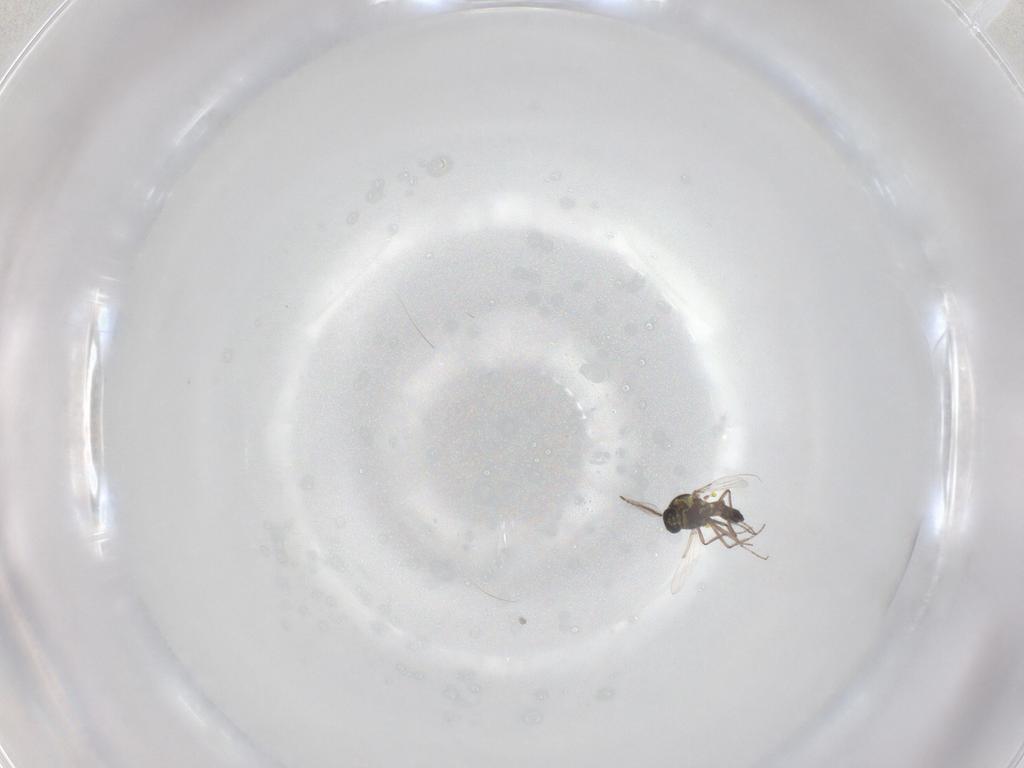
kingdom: Animalia
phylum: Arthropoda
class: Insecta
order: Diptera
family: Ceratopogonidae
